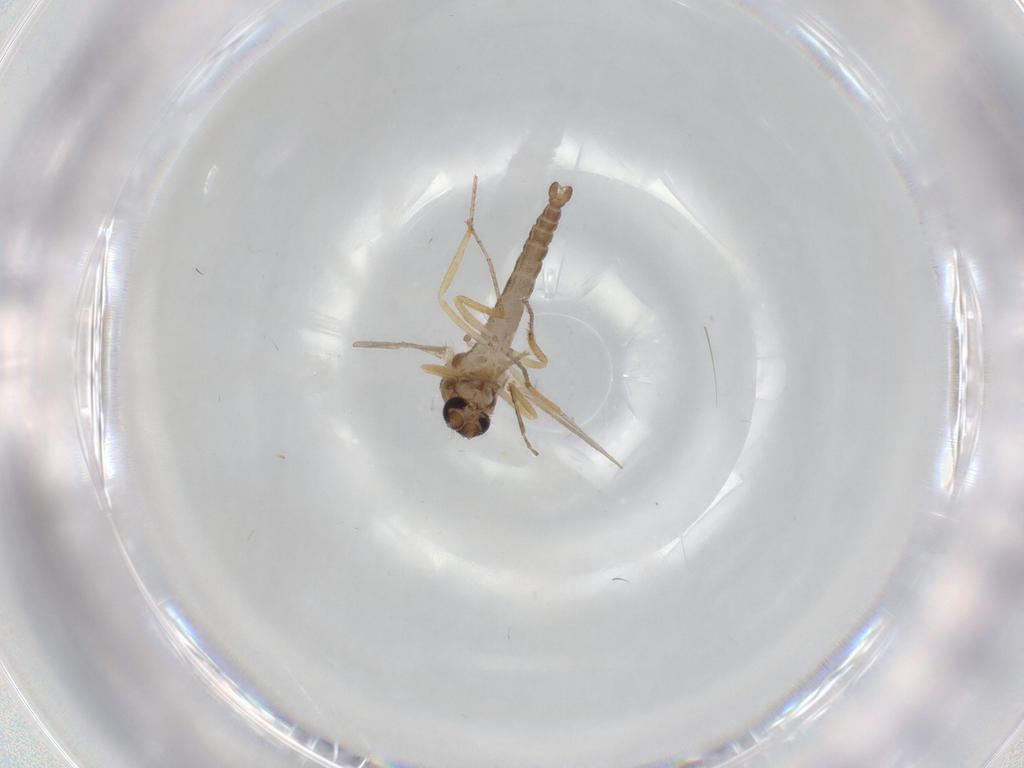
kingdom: Animalia
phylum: Arthropoda
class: Insecta
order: Diptera
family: Ceratopogonidae
